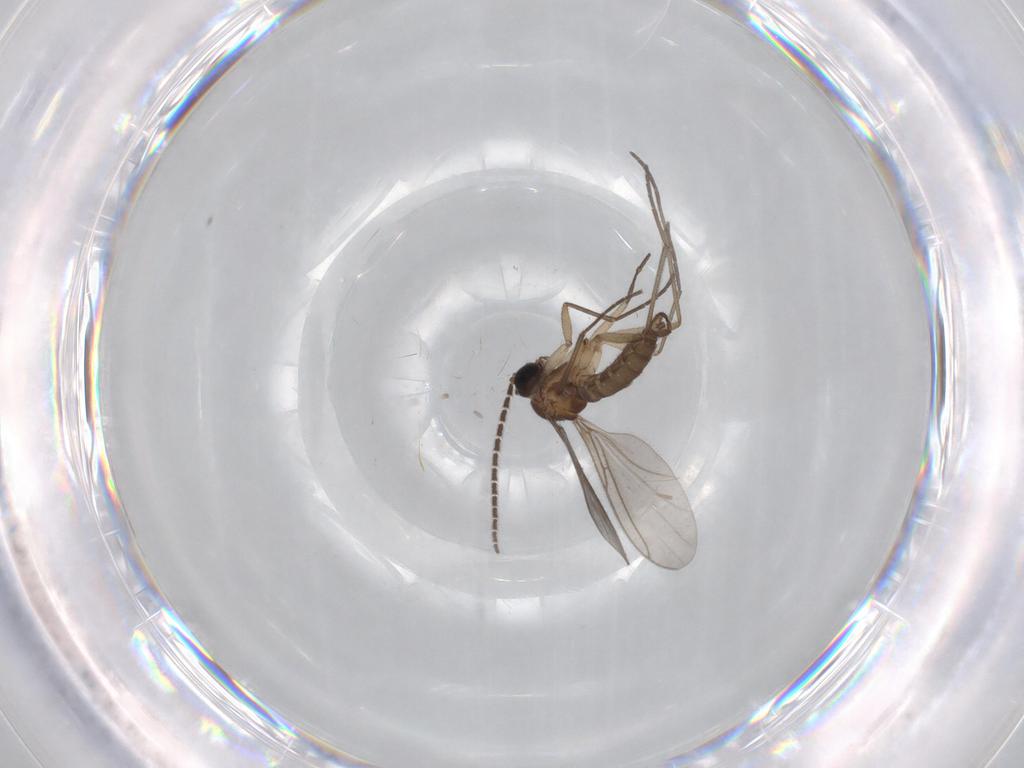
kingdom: Animalia
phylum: Arthropoda
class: Insecta
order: Diptera
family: Sciaridae
